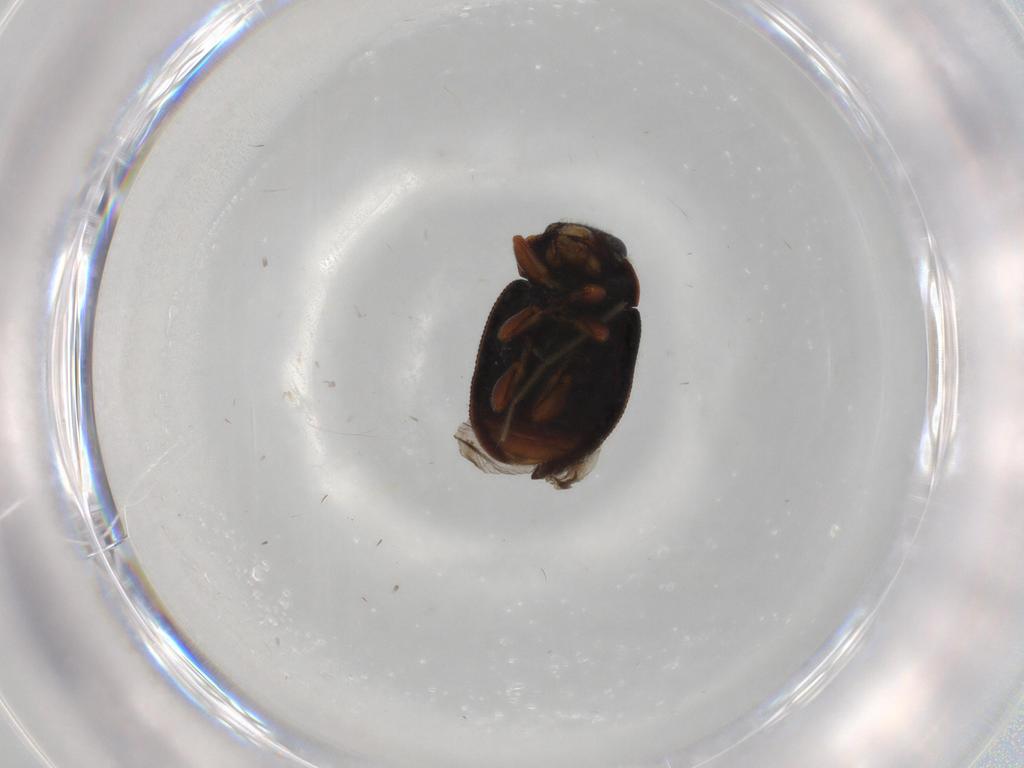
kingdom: Animalia
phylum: Arthropoda
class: Insecta
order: Coleoptera
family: Coccinellidae
